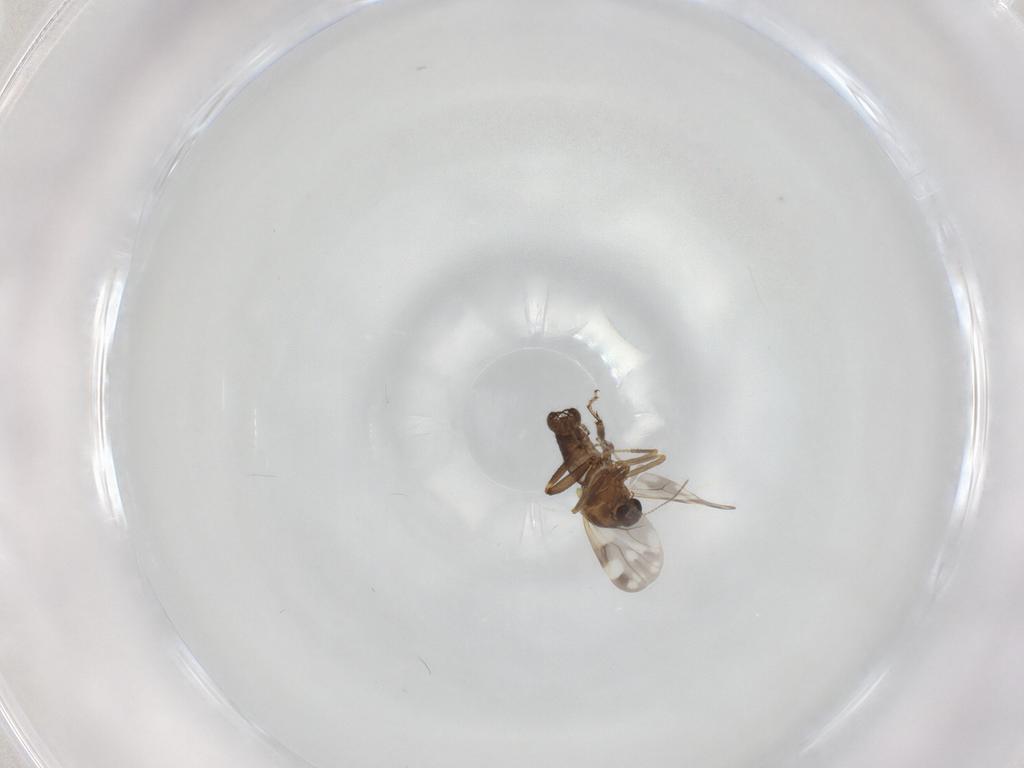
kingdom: Animalia
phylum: Arthropoda
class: Insecta
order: Diptera
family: Ceratopogonidae
